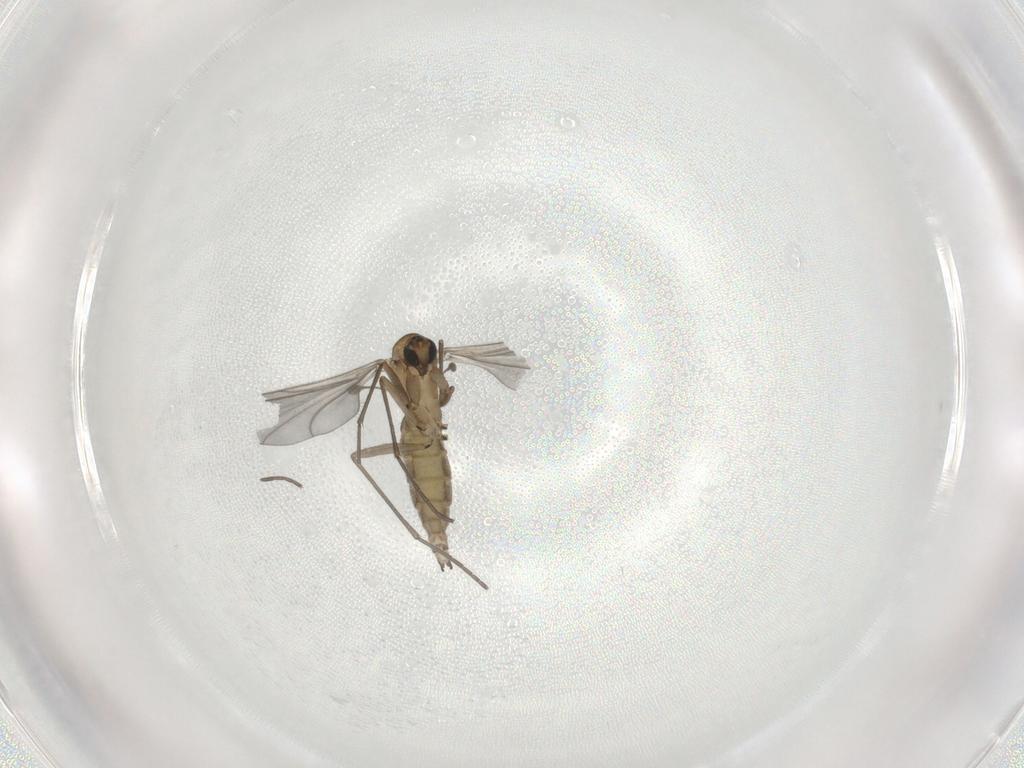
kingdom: Animalia
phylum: Arthropoda
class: Insecta
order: Diptera
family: Sciaridae
